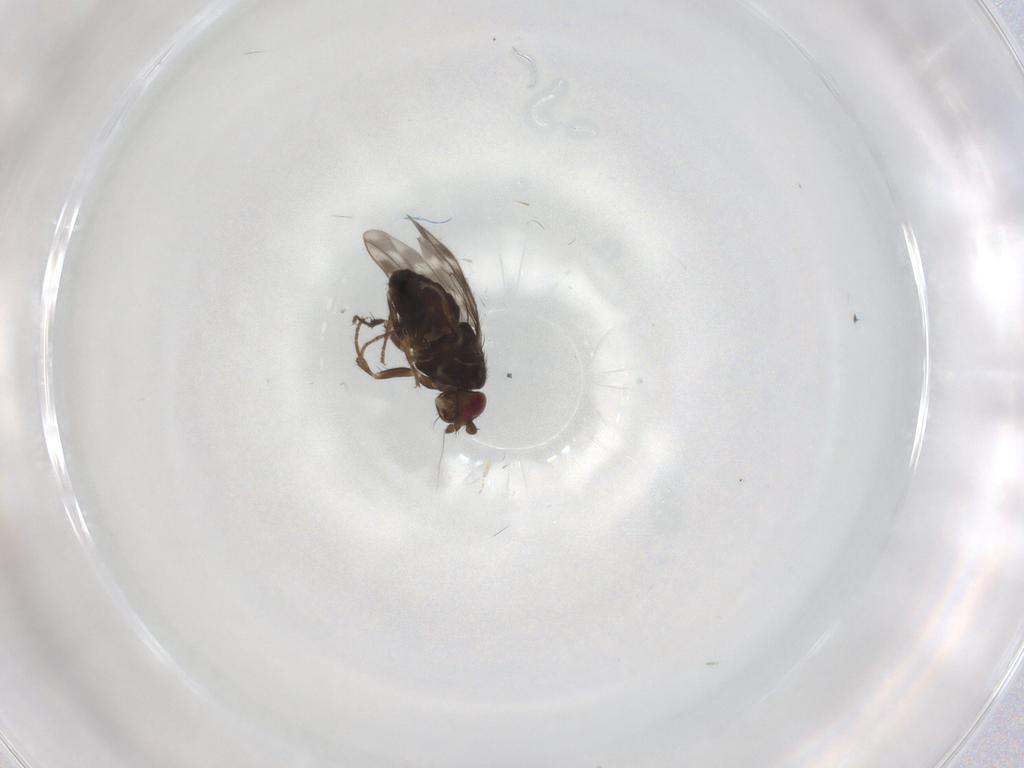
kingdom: Animalia
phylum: Arthropoda
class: Insecta
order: Diptera
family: Sphaeroceridae
